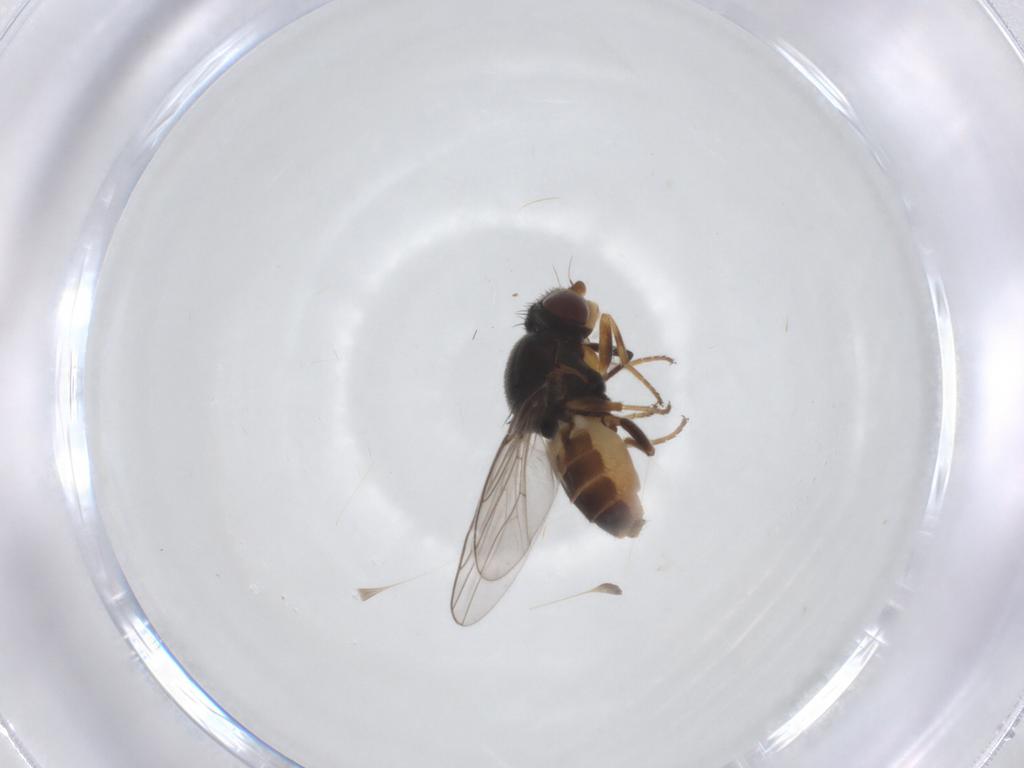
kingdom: Animalia
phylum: Arthropoda
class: Insecta
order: Diptera
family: Chloropidae
